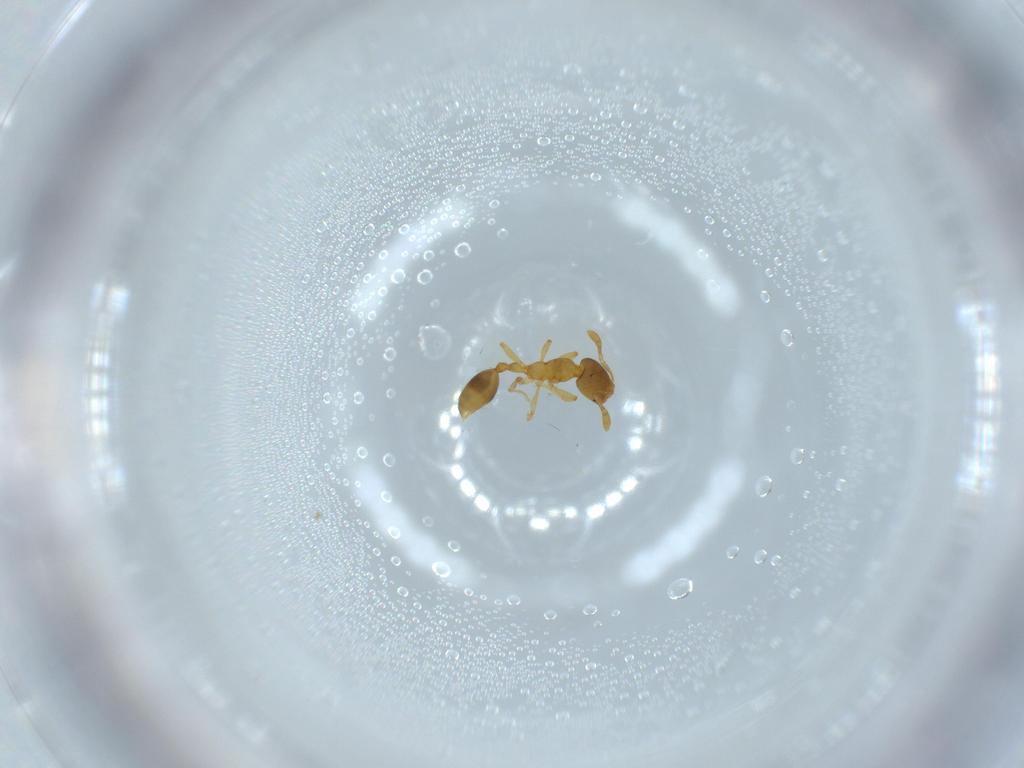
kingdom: Animalia
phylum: Arthropoda
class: Insecta
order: Hymenoptera
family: Formicidae
